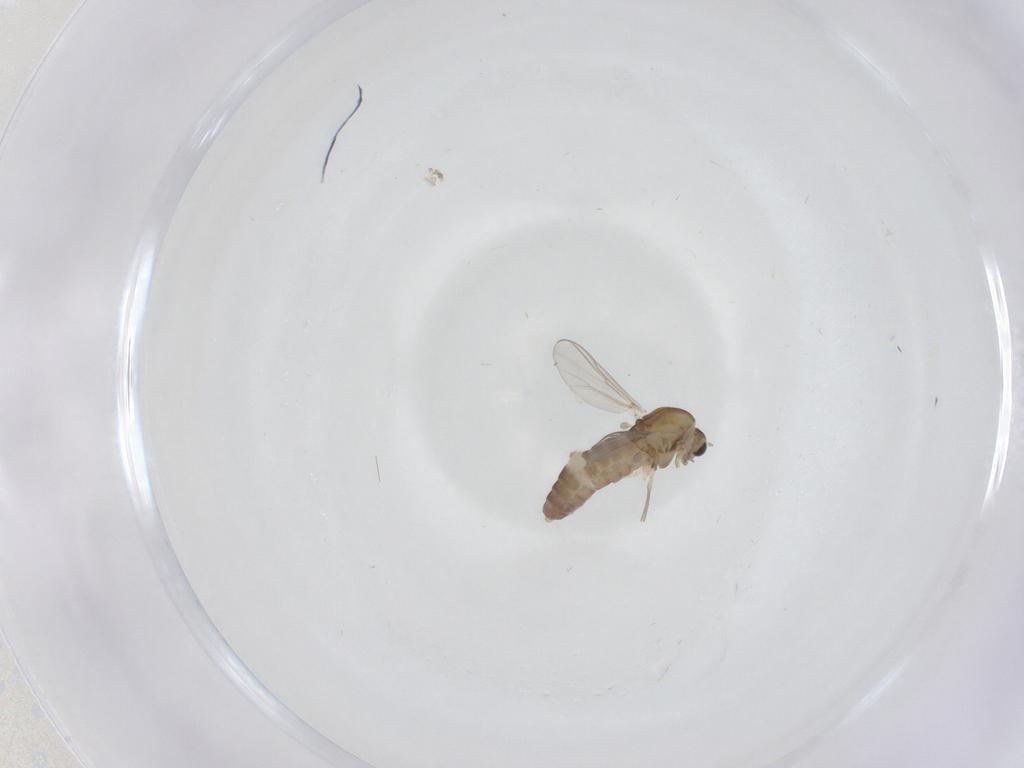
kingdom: Animalia
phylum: Arthropoda
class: Insecta
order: Diptera
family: Chironomidae
